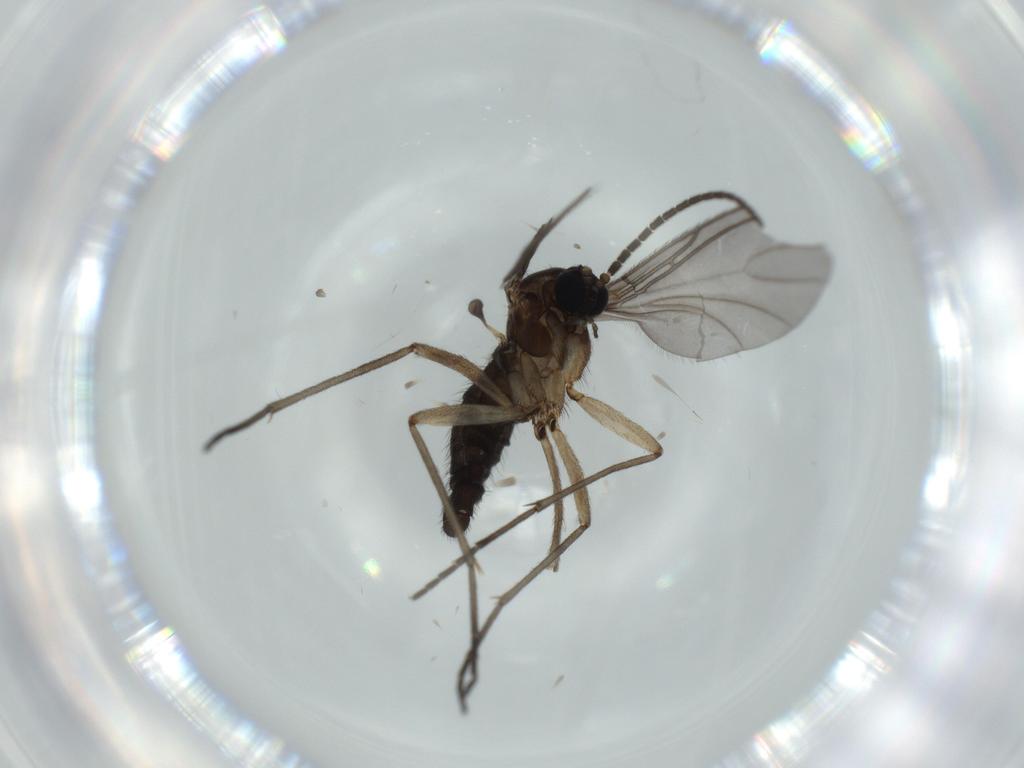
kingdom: Animalia
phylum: Arthropoda
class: Insecta
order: Diptera
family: Sciaridae
